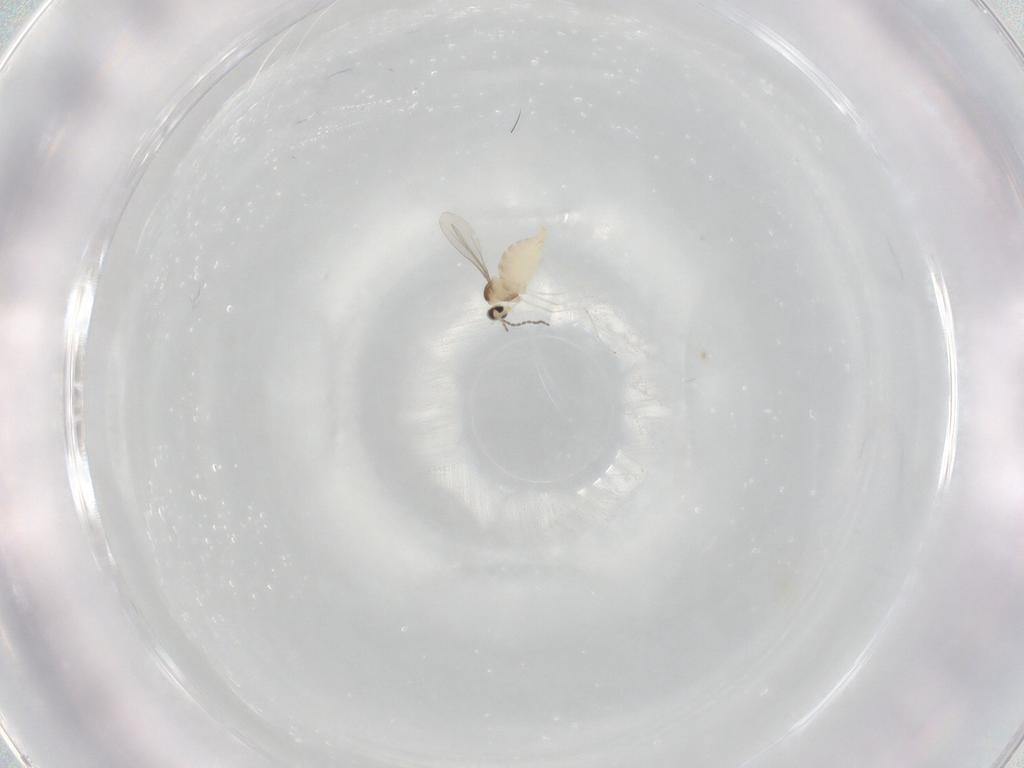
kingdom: Animalia
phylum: Arthropoda
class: Insecta
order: Diptera
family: Cecidomyiidae
